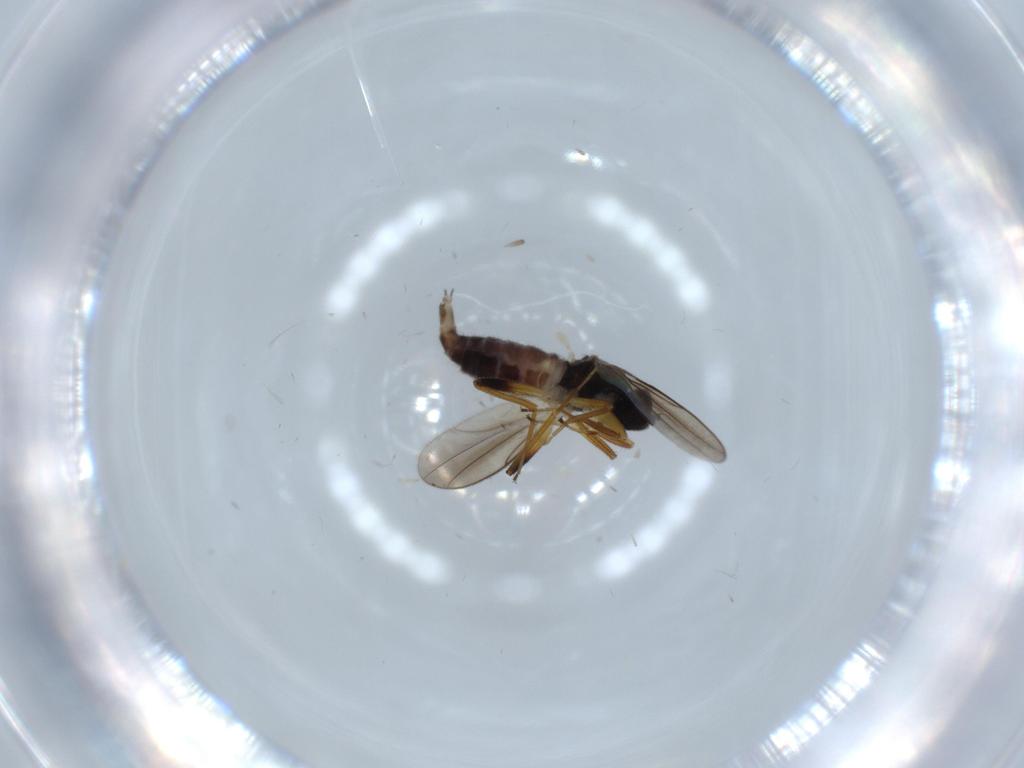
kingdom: Animalia
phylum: Arthropoda
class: Insecta
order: Diptera
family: Hybotidae
